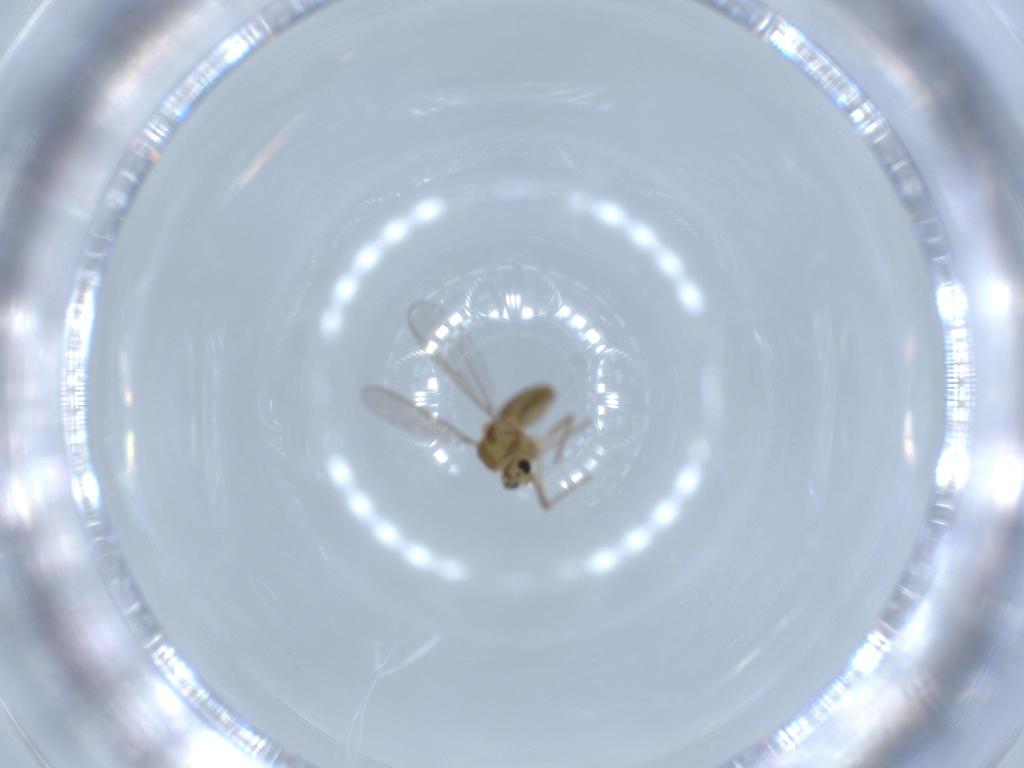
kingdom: Animalia
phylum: Arthropoda
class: Insecta
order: Diptera
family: Chironomidae
